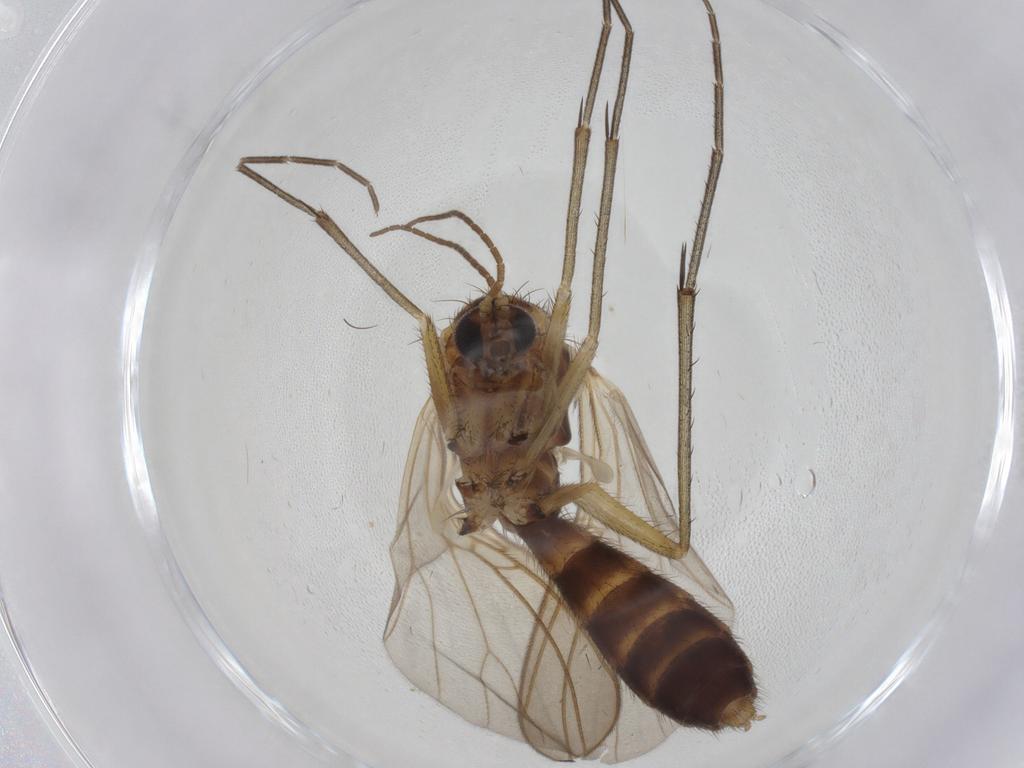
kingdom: Animalia
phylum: Arthropoda
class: Insecta
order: Diptera
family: Mycetophilidae
